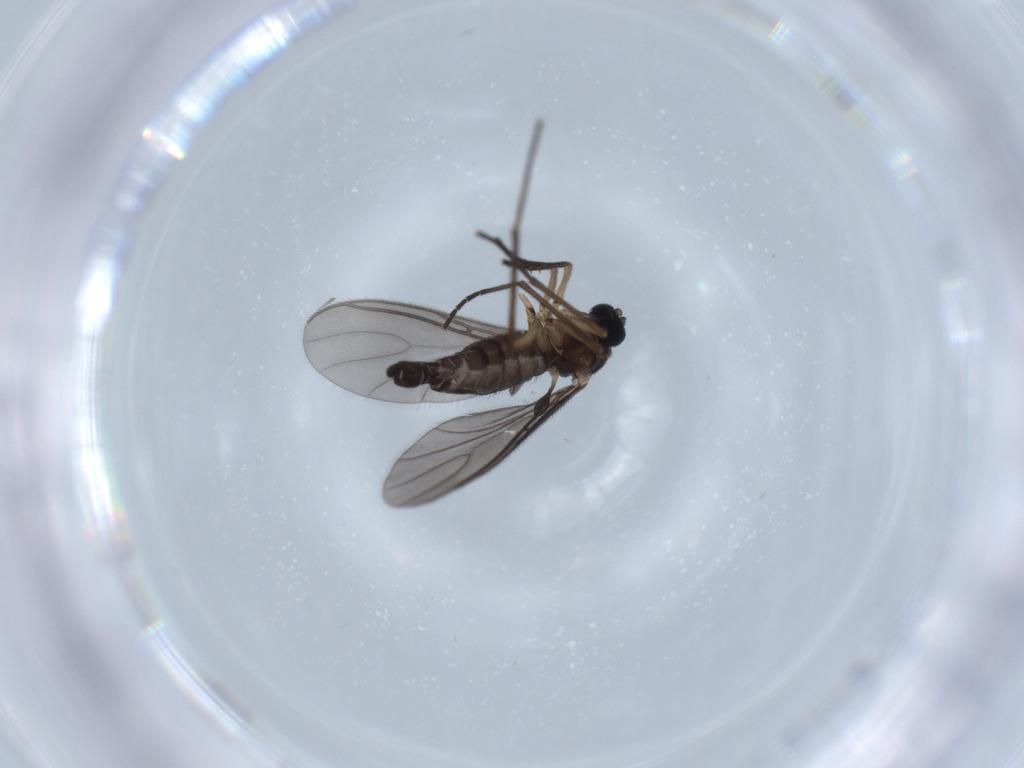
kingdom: Animalia
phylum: Arthropoda
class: Insecta
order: Diptera
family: Sciaridae
